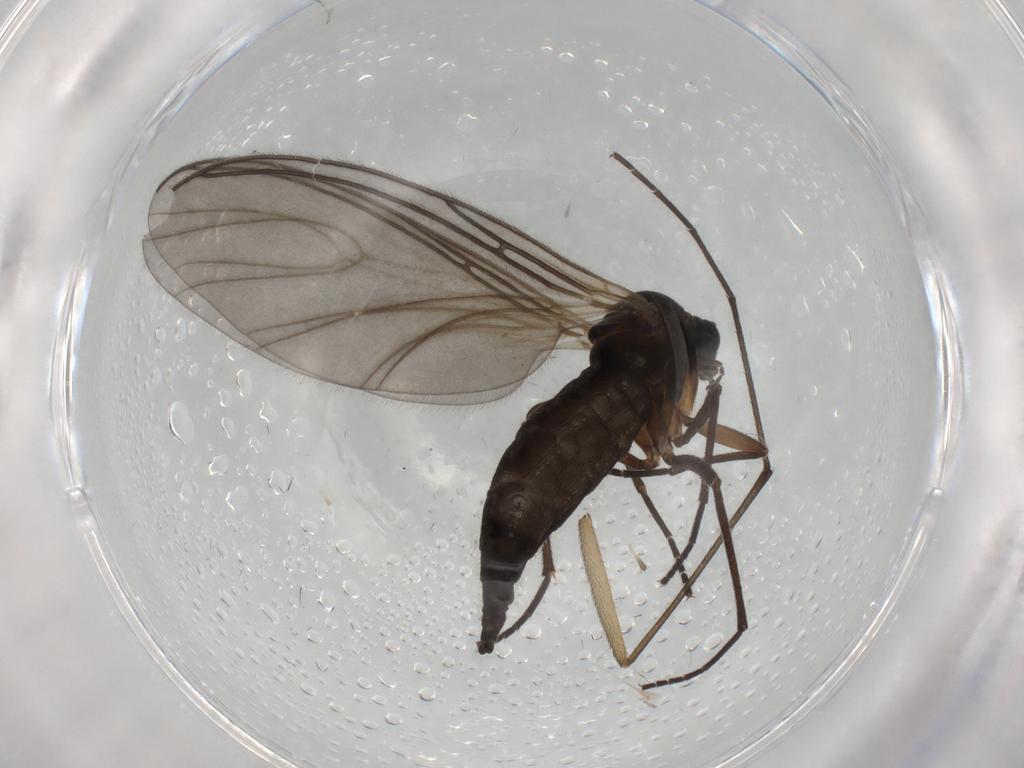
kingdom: Animalia
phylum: Arthropoda
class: Insecta
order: Diptera
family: Sciaridae
